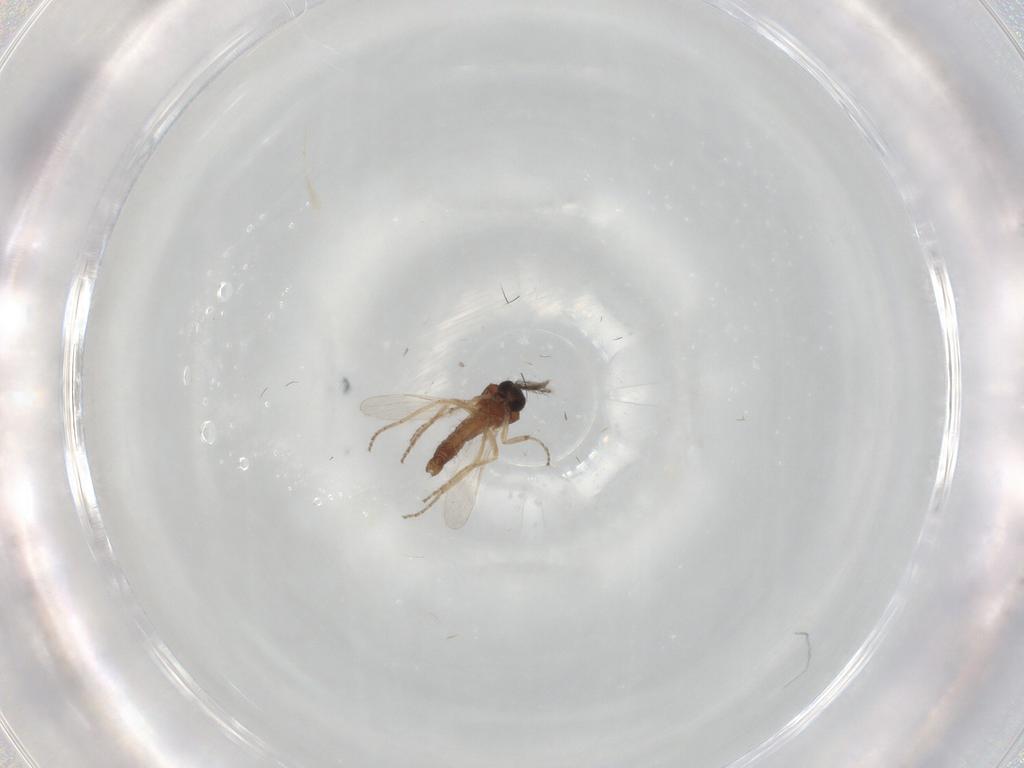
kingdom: Animalia
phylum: Arthropoda
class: Insecta
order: Diptera
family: Ceratopogonidae
